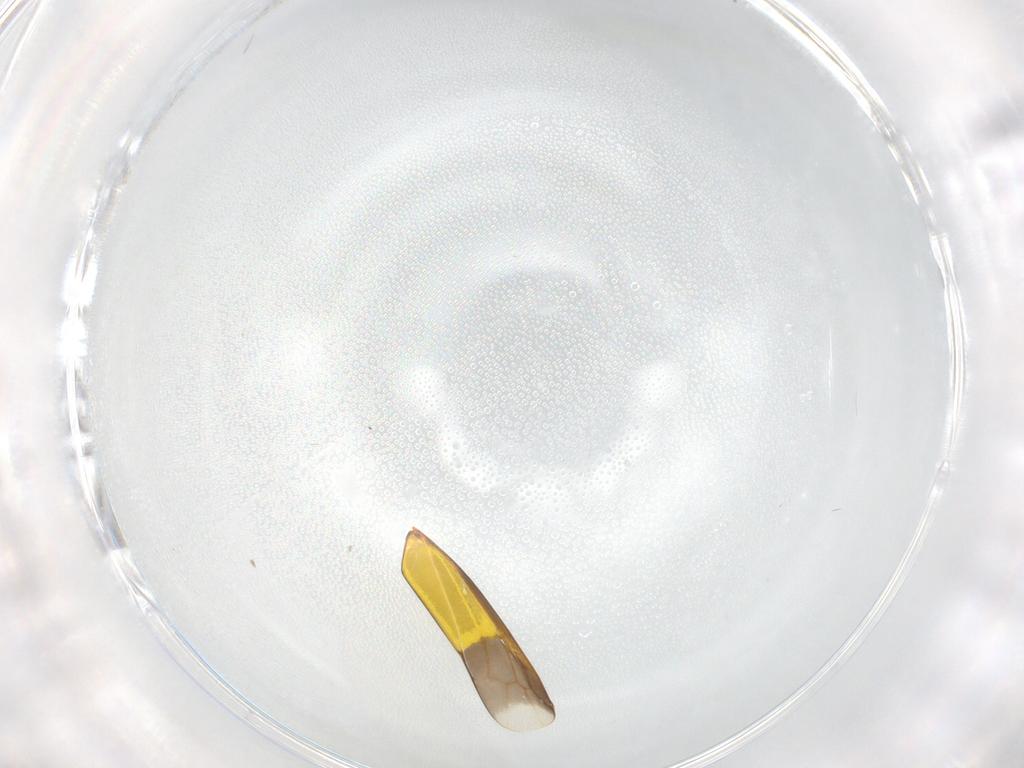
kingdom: Animalia
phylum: Arthropoda
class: Insecta
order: Hemiptera
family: Cicadellidae
